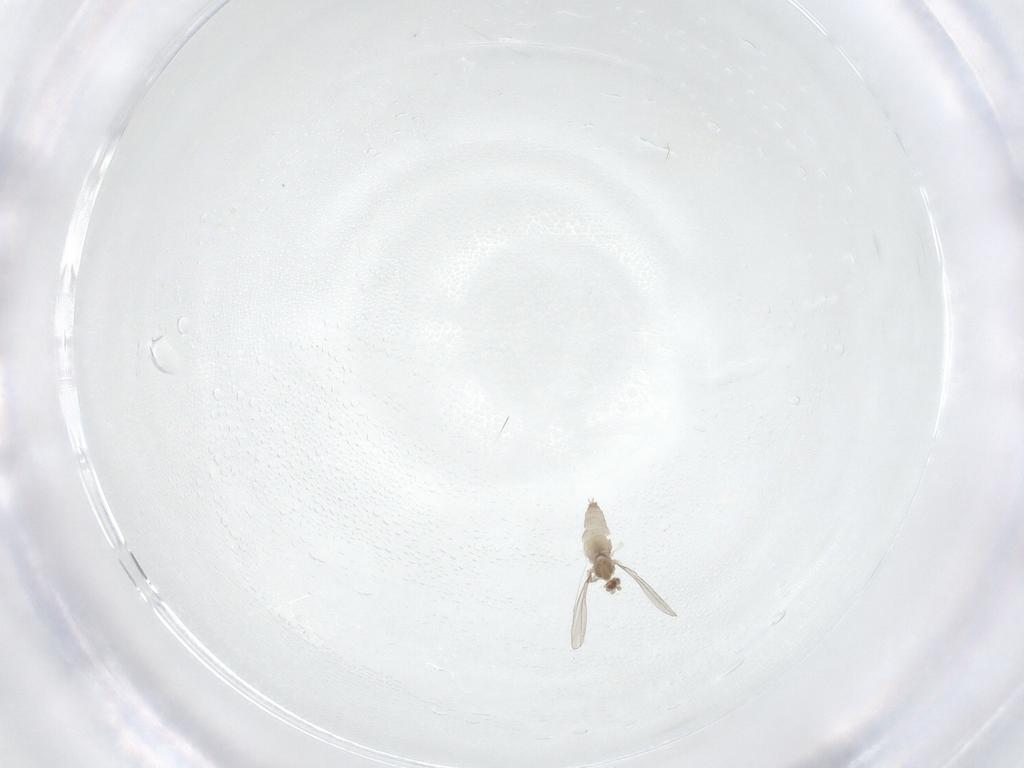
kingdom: Animalia
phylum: Arthropoda
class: Insecta
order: Diptera
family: Cecidomyiidae
